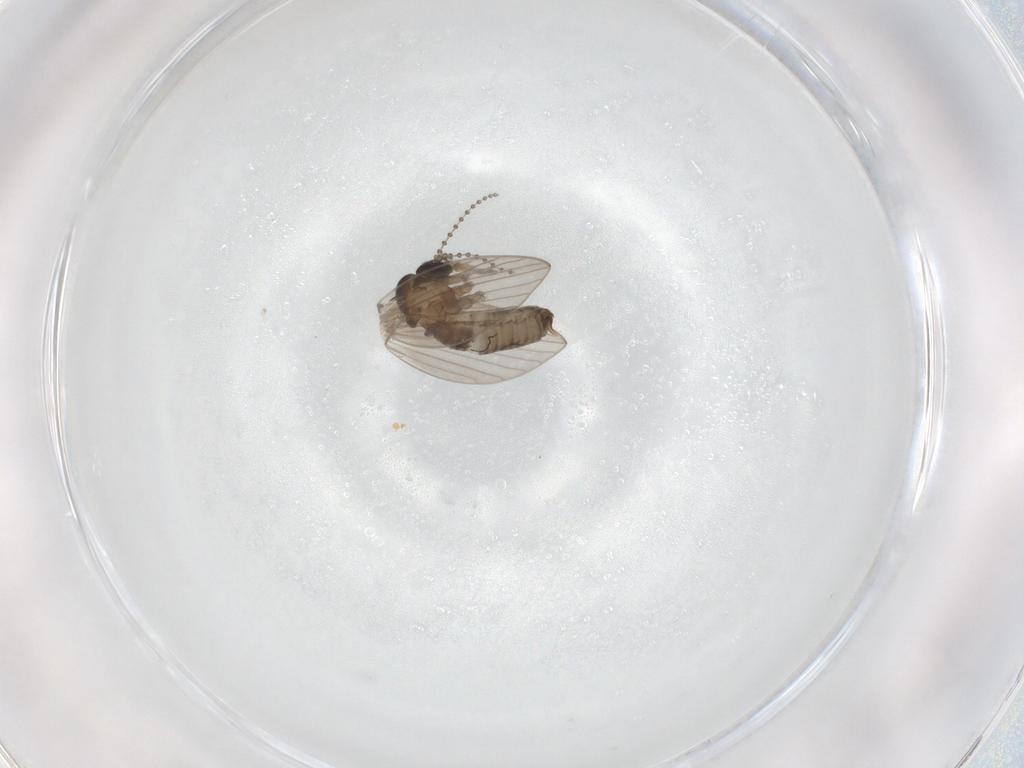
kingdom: Animalia
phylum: Arthropoda
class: Insecta
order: Diptera
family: Psychodidae
